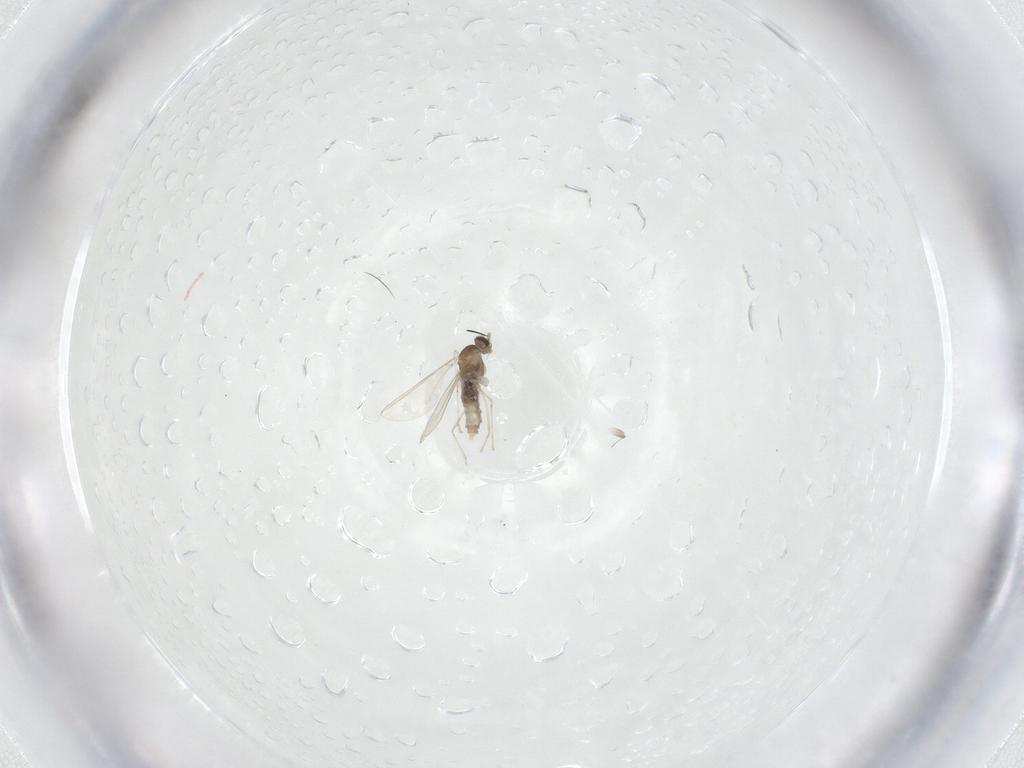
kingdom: Animalia
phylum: Arthropoda
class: Insecta
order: Diptera
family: Cecidomyiidae
